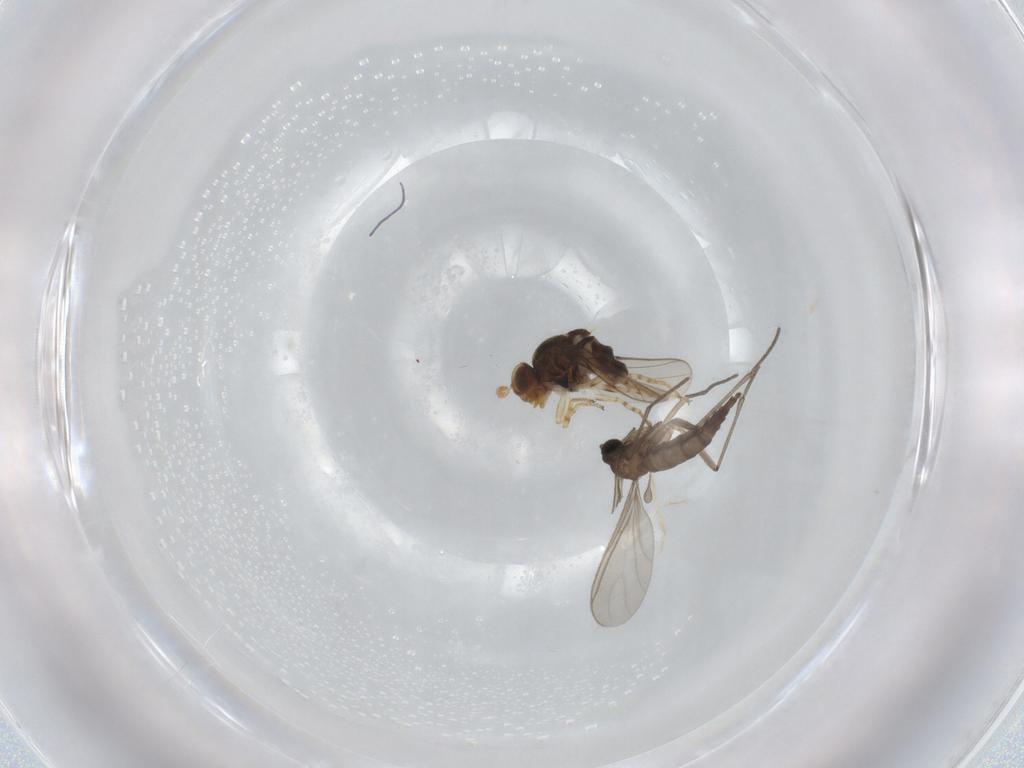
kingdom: Animalia
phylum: Arthropoda
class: Insecta
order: Diptera
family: Sciaridae
